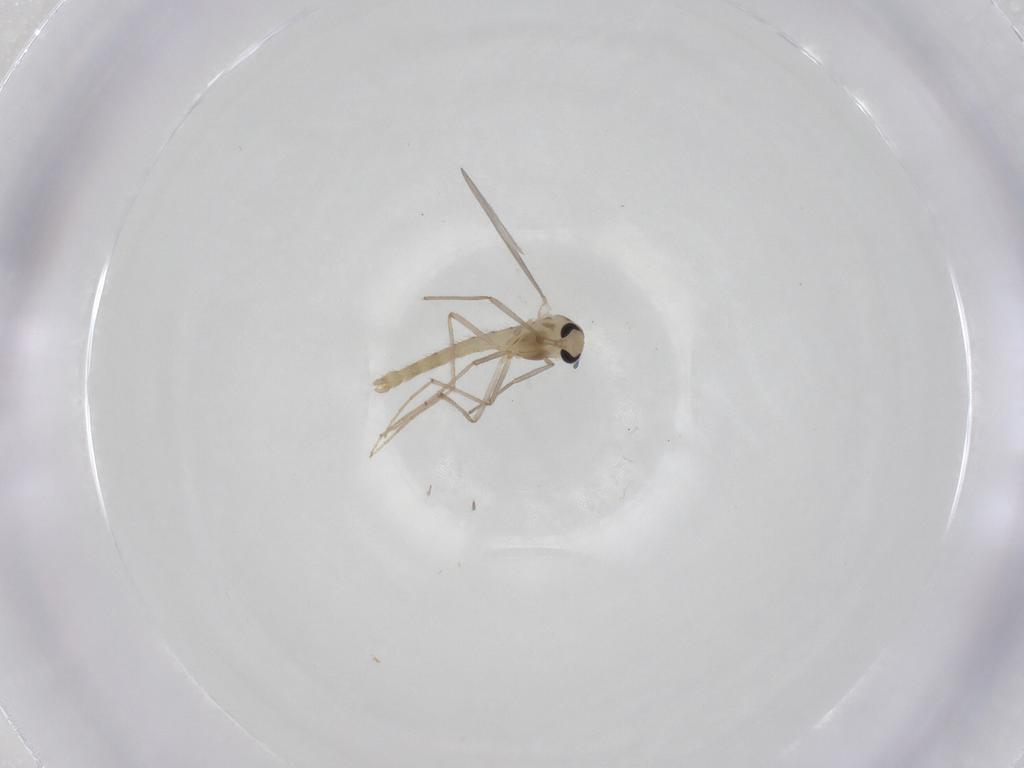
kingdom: Animalia
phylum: Arthropoda
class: Insecta
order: Diptera
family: Chironomidae
